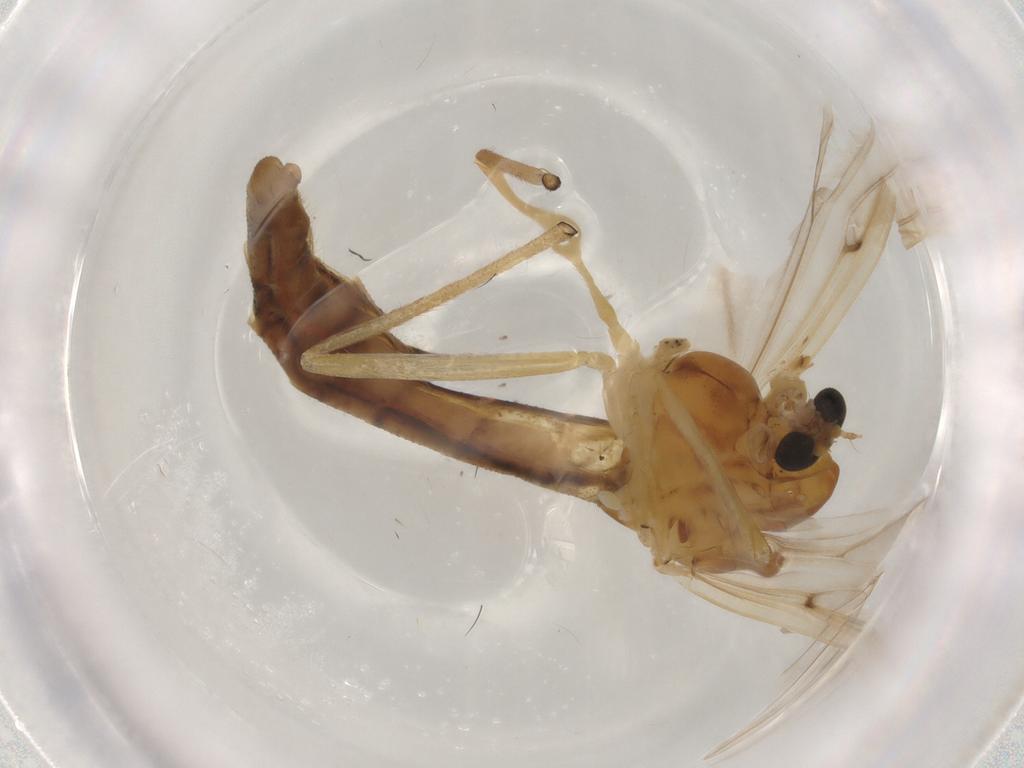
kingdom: Animalia
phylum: Arthropoda
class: Insecta
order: Diptera
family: Chironomidae
